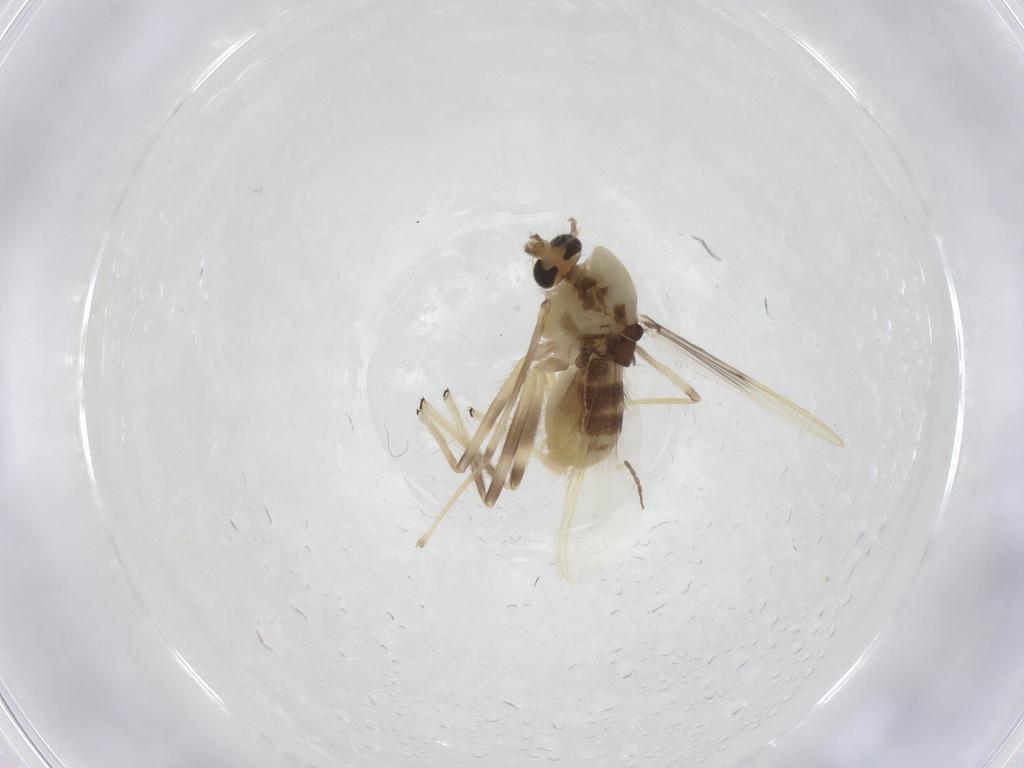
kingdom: Animalia
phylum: Arthropoda
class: Insecta
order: Diptera
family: Chironomidae
